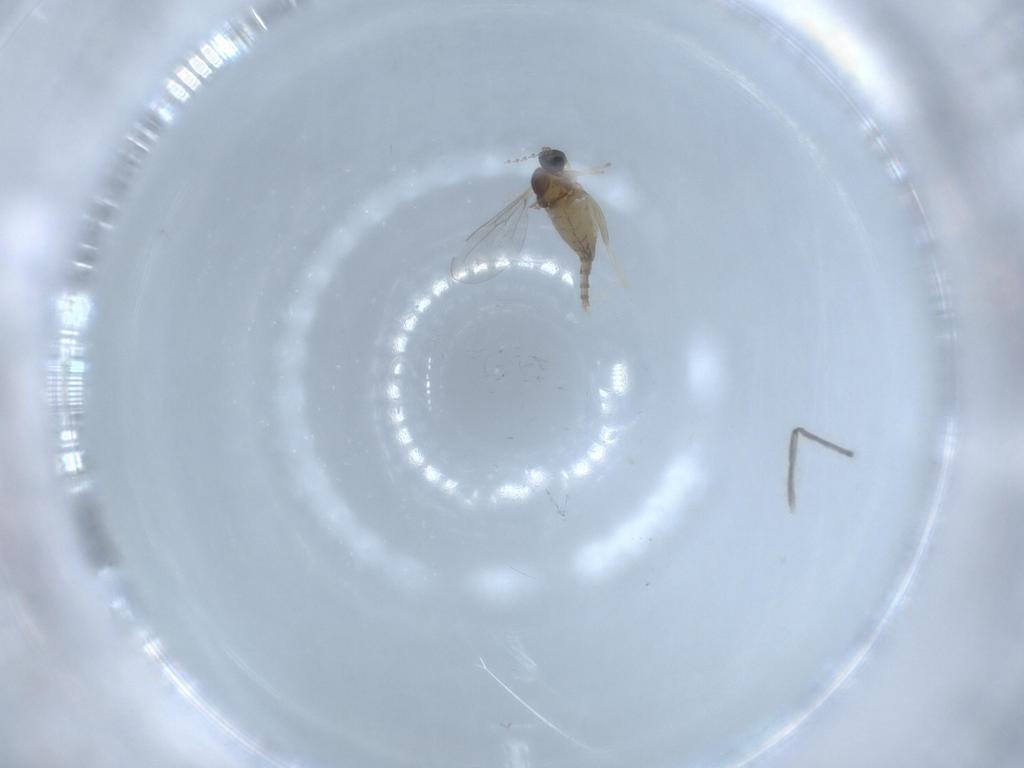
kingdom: Animalia
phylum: Arthropoda
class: Insecta
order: Diptera
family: Cecidomyiidae
